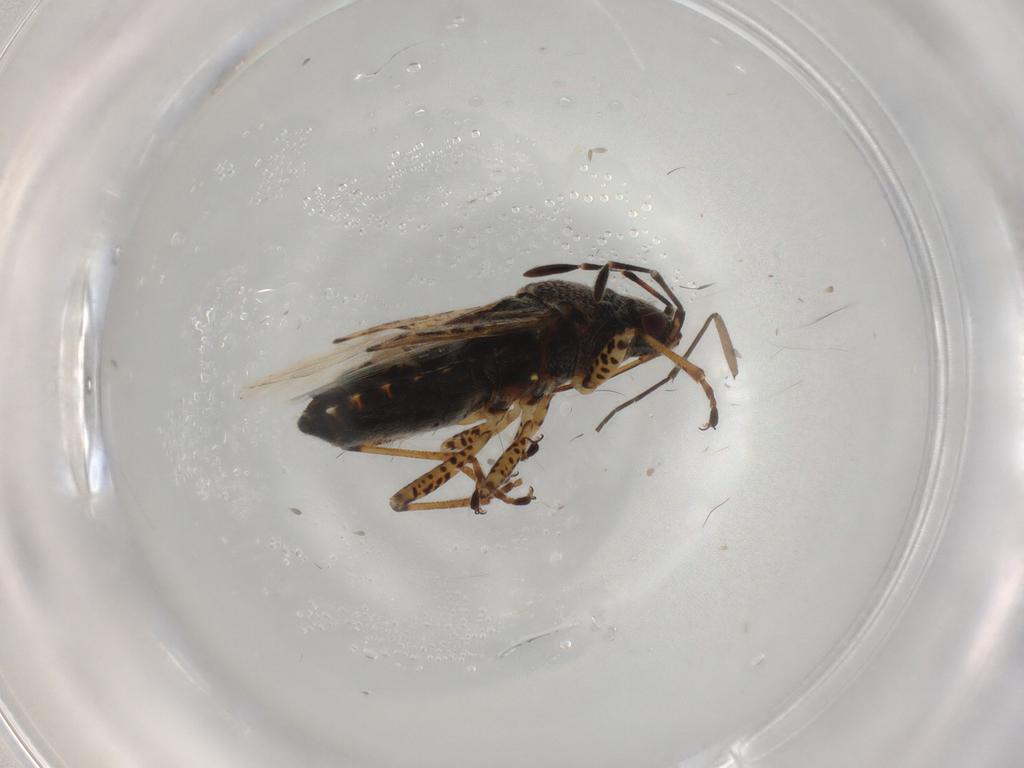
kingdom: Animalia
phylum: Arthropoda
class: Insecta
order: Hemiptera
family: Lygaeidae
